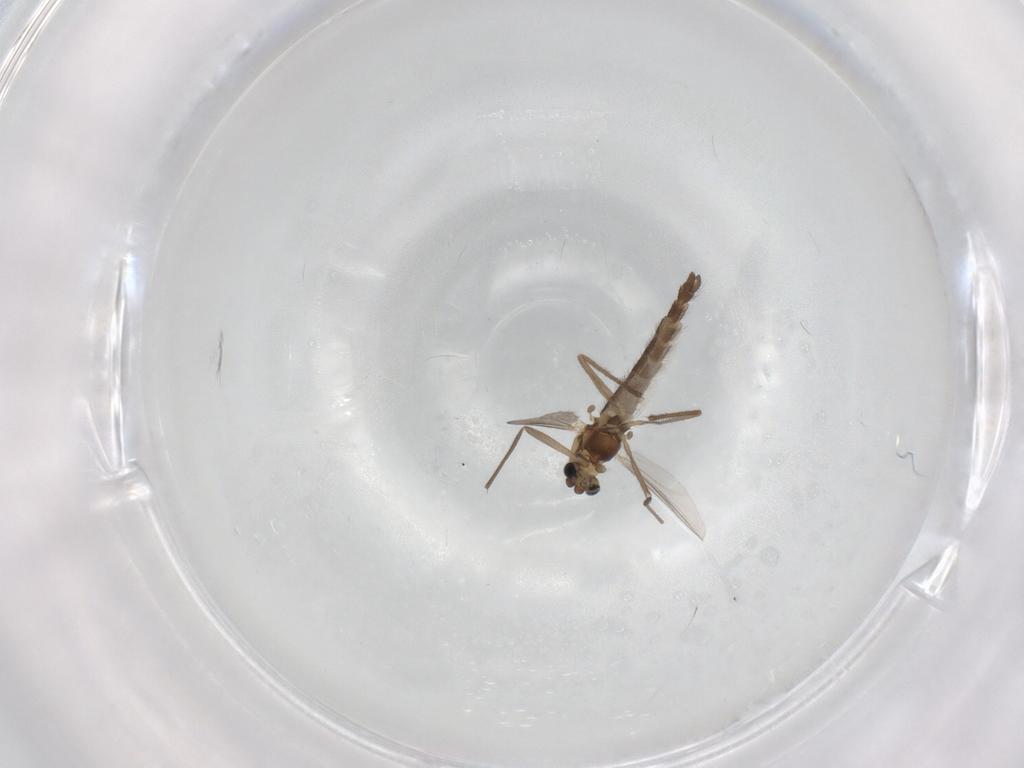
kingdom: Animalia
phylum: Arthropoda
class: Insecta
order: Diptera
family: Chironomidae
